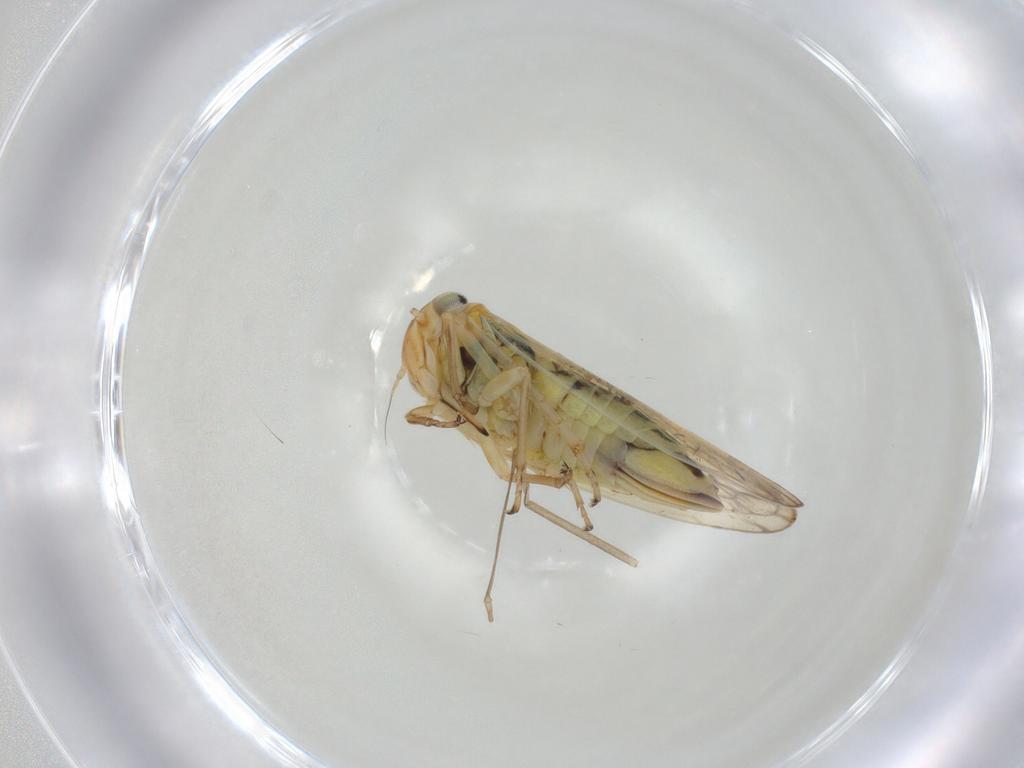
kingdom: Animalia
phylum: Arthropoda
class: Insecta
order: Hemiptera
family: Cicadellidae
